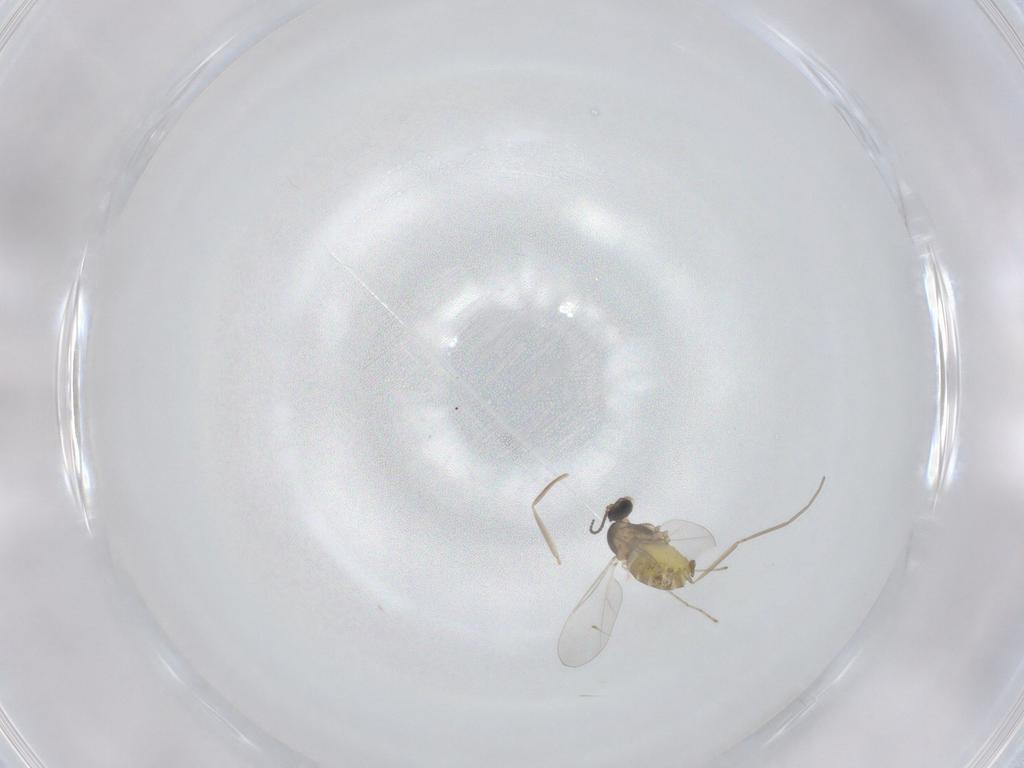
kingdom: Animalia
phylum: Arthropoda
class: Insecta
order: Diptera
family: Cecidomyiidae
